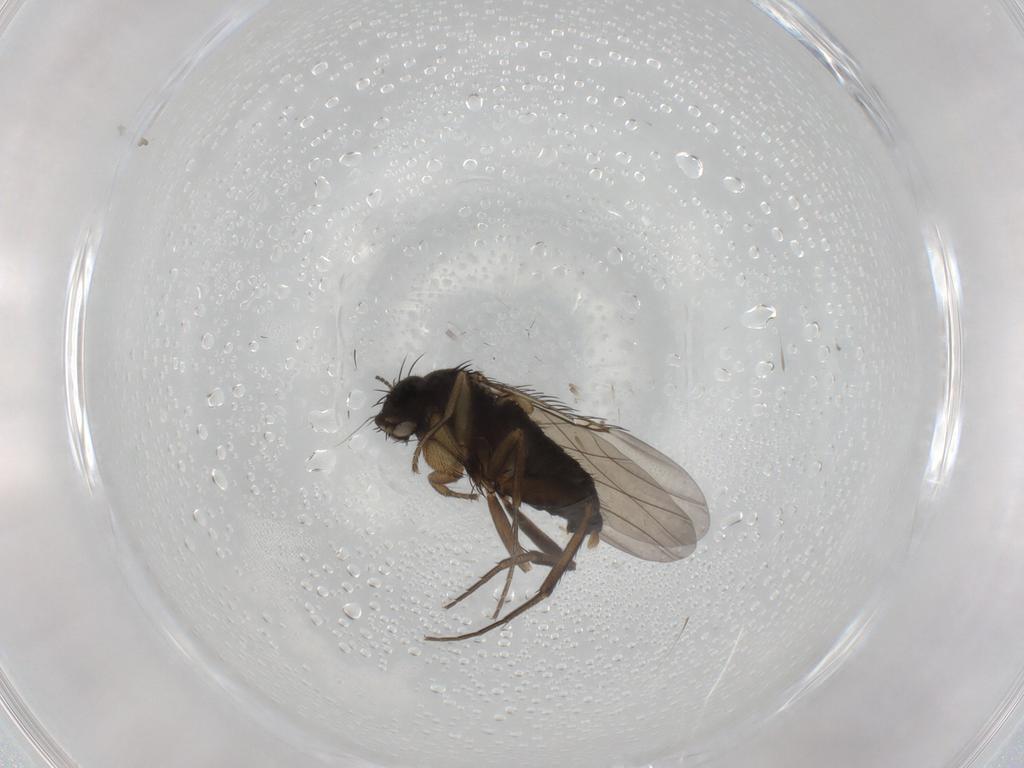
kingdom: Animalia
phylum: Arthropoda
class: Insecta
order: Diptera
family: Phoridae
